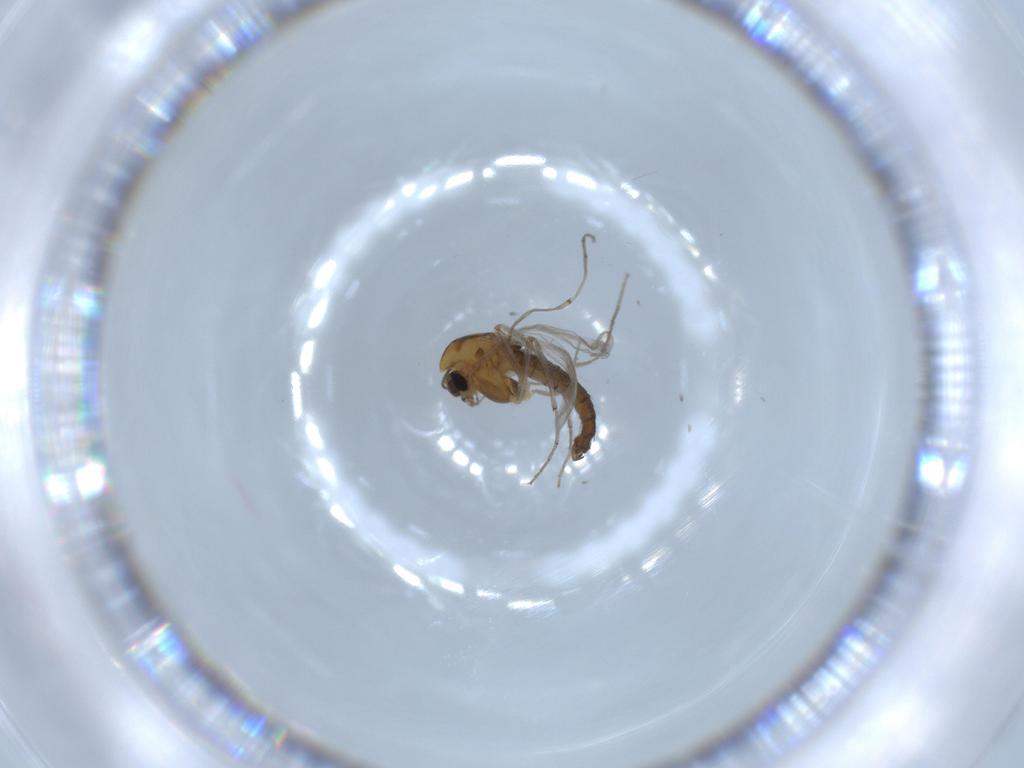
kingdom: Animalia
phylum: Arthropoda
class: Insecta
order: Diptera
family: Chironomidae
